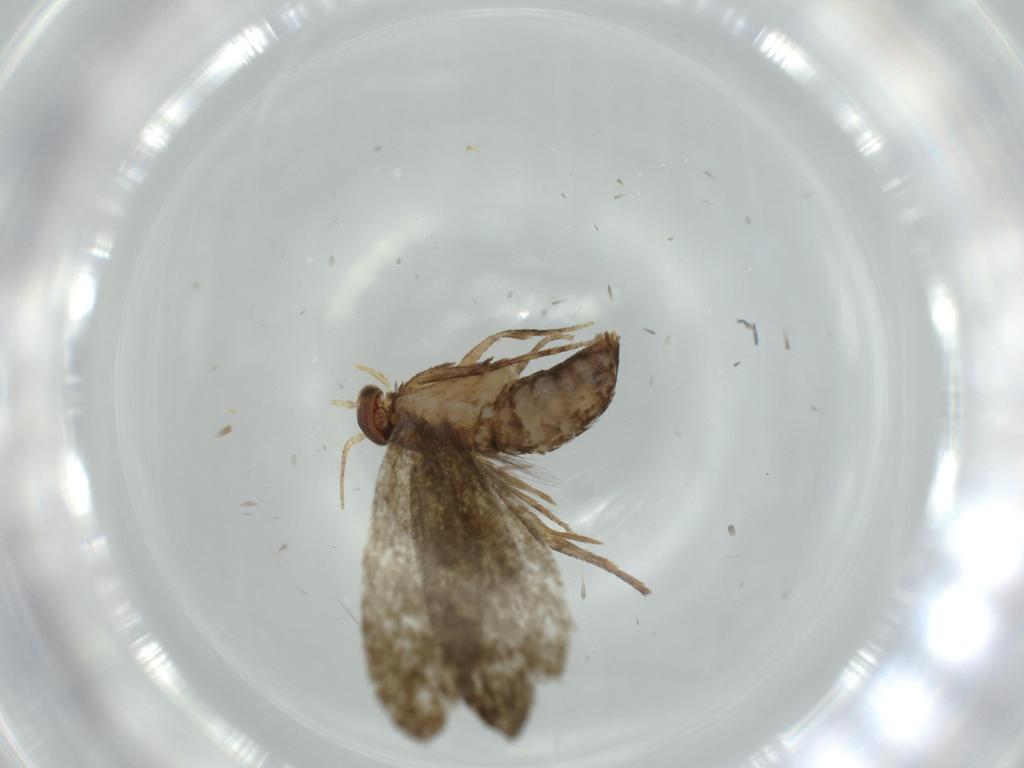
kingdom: Animalia
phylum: Arthropoda
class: Insecta
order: Lepidoptera
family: Tineidae
